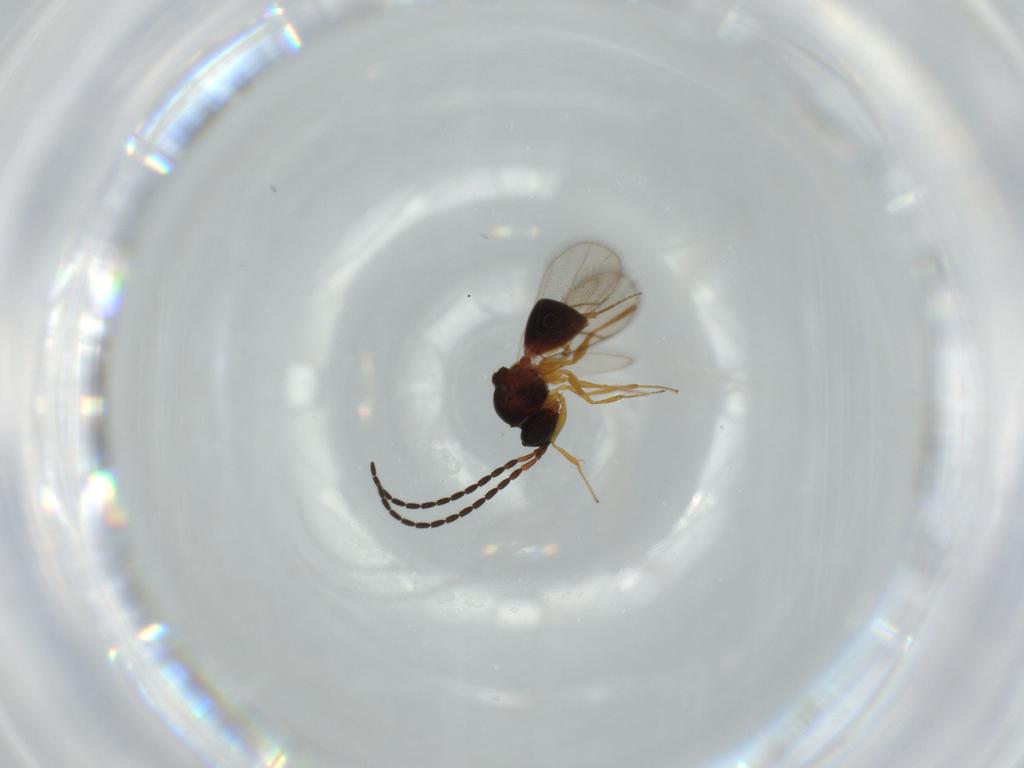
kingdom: Animalia
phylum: Arthropoda
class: Insecta
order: Hymenoptera
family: Figitidae
